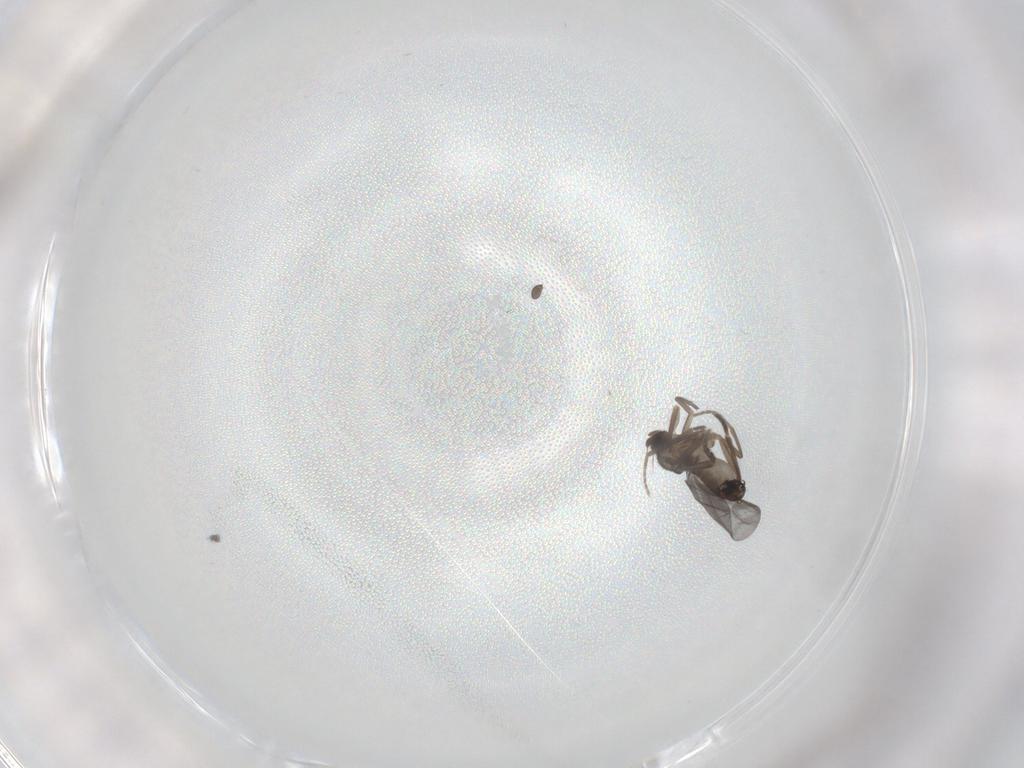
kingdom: Animalia
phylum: Arthropoda
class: Insecta
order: Diptera
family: Phoridae
